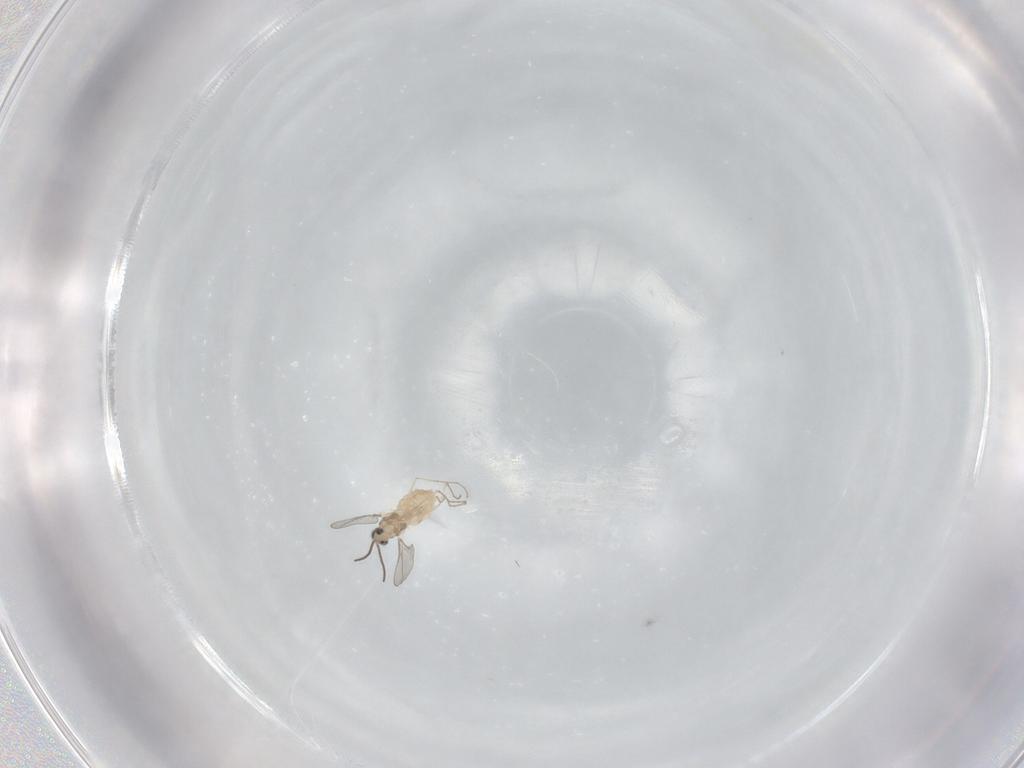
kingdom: Animalia
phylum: Arthropoda
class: Insecta
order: Diptera
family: Cecidomyiidae
